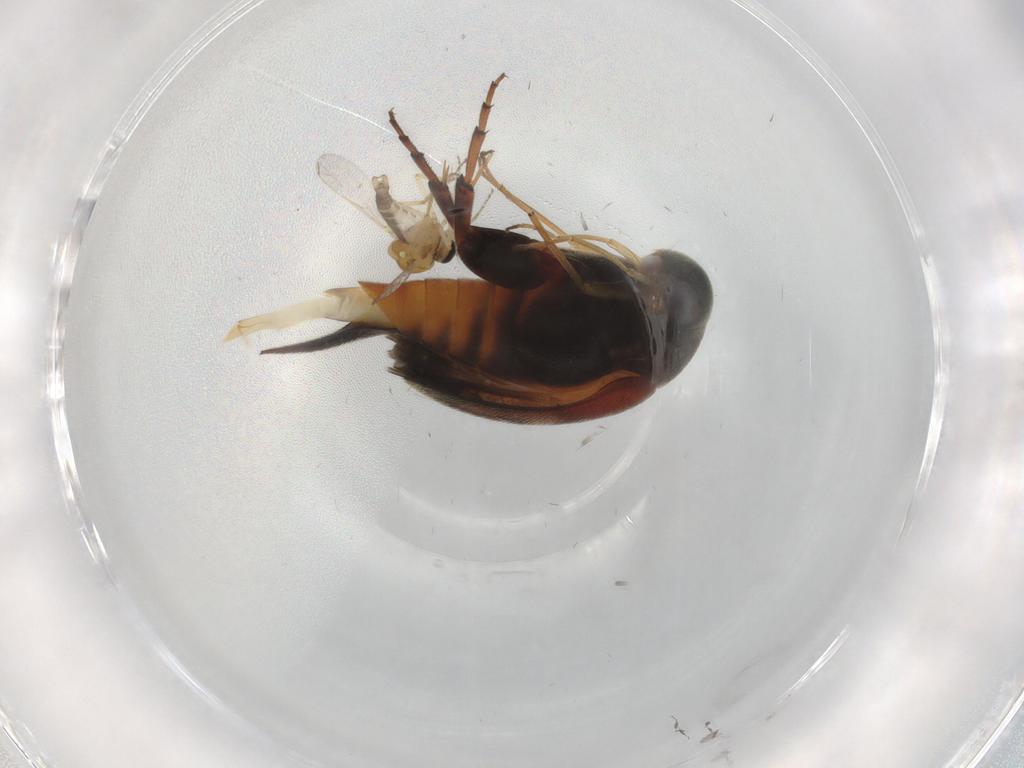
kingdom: Animalia
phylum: Arthropoda
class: Insecta
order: Coleoptera
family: Mordellidae
